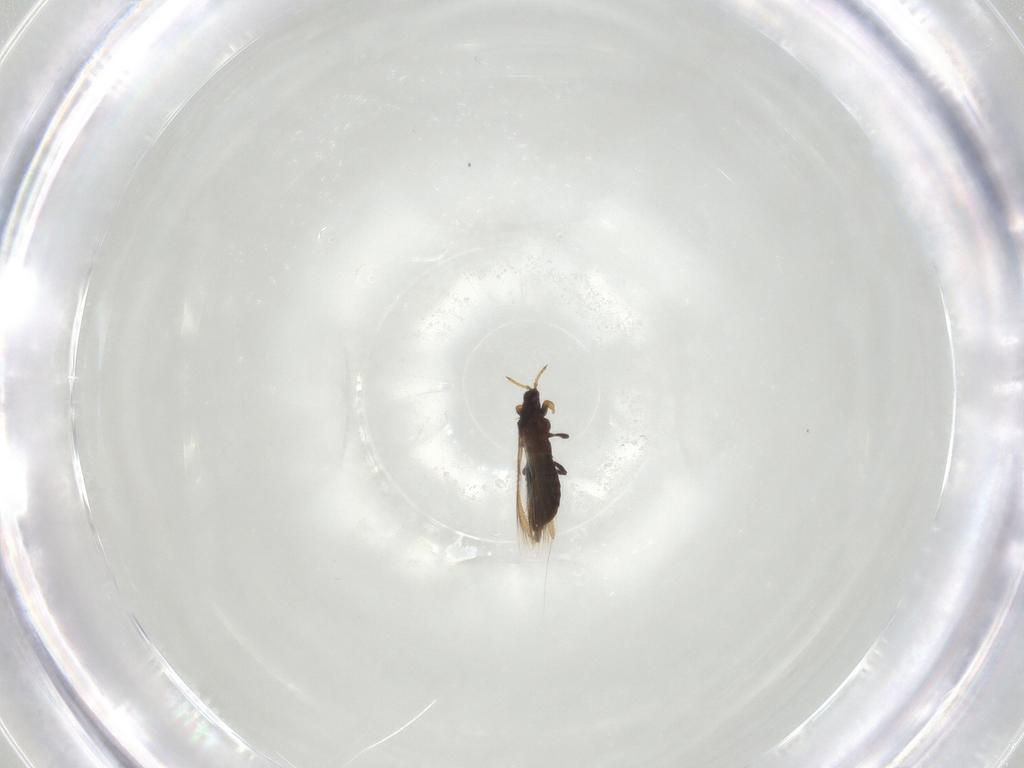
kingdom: Animalia
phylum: Arthropoda
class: Insecta
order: Thysanoptera
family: Thripidae
